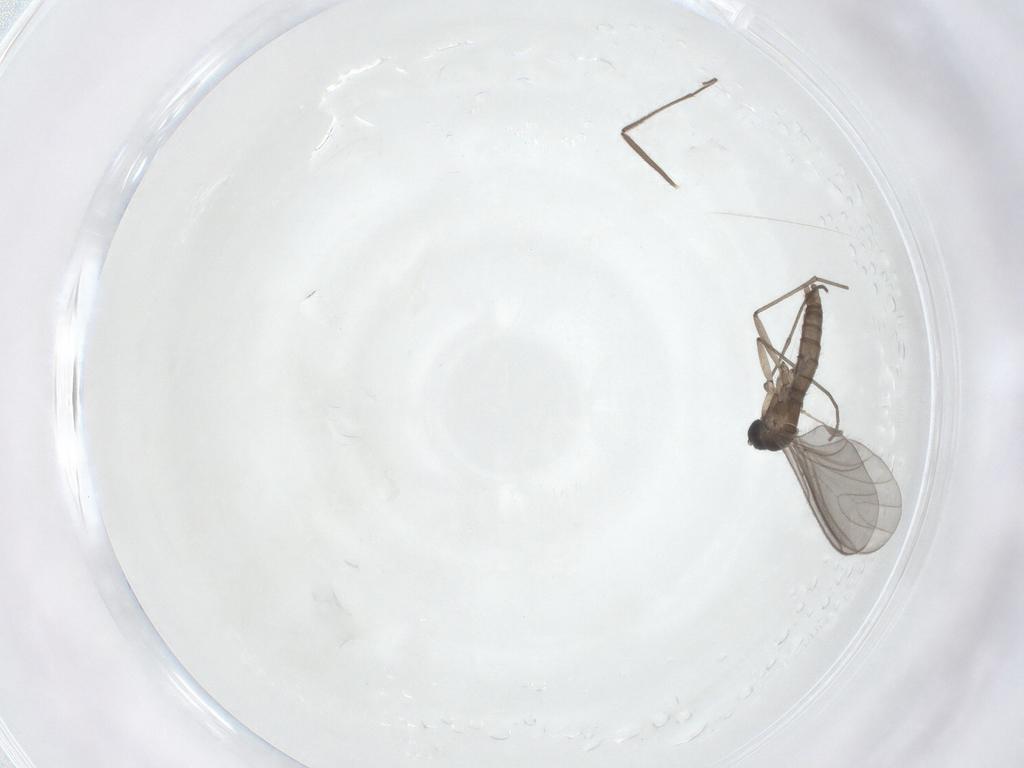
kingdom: Animalia
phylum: Arthropoda
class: Insecta
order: Diptera
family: Sciaridae
